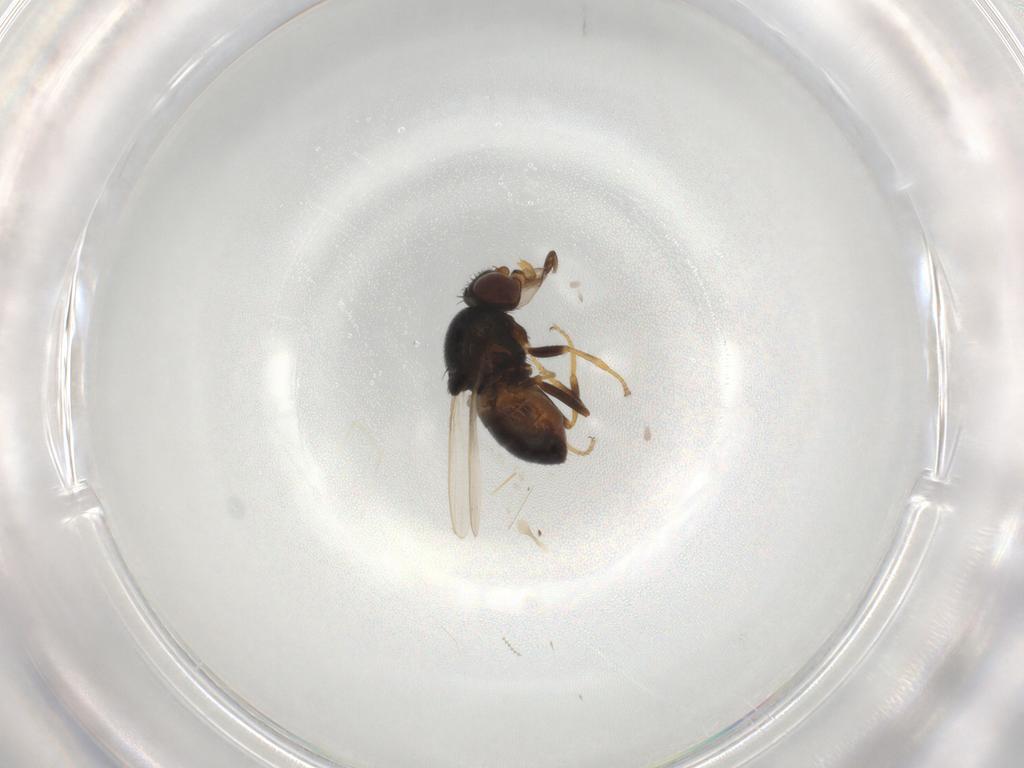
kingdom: Animalia
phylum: Arthropoda
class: Insecta
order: Diptera
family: Chloropidae
